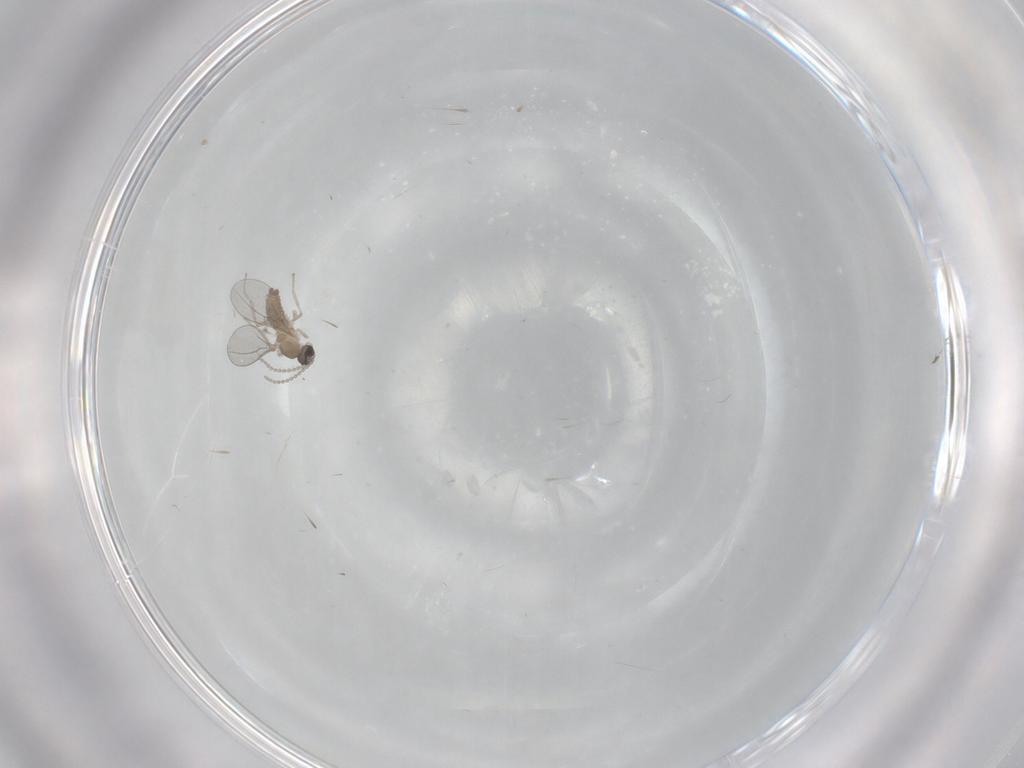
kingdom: Animalia
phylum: Arthropoda
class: Insecta
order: Diptera
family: Cecidomyiidae
